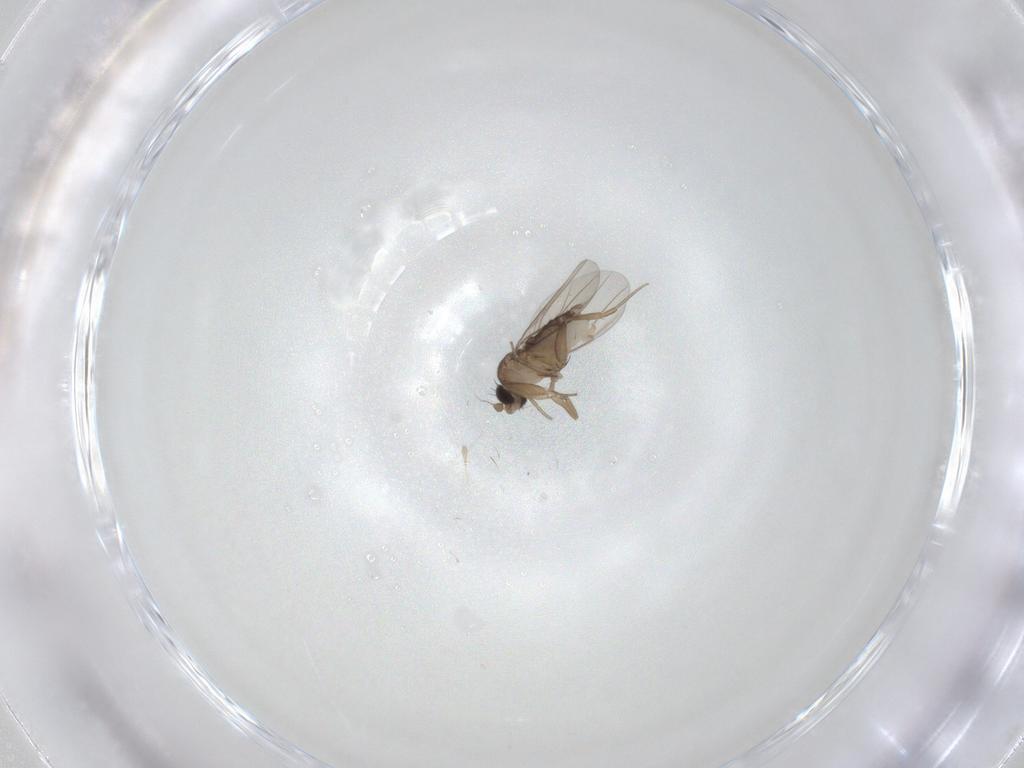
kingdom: Animalia
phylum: Arthropoda
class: Insecta
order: Diptera
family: Phoridae
